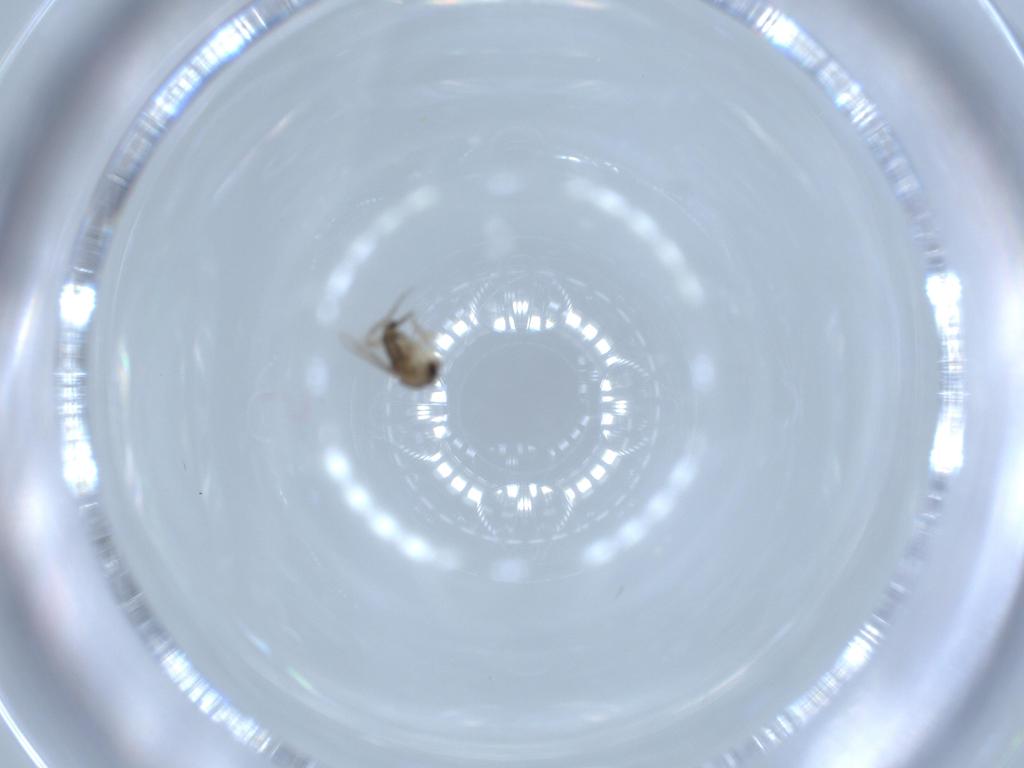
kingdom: Animalia
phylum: Arthropoda
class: Insecta
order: Diptera
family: Phoridae
